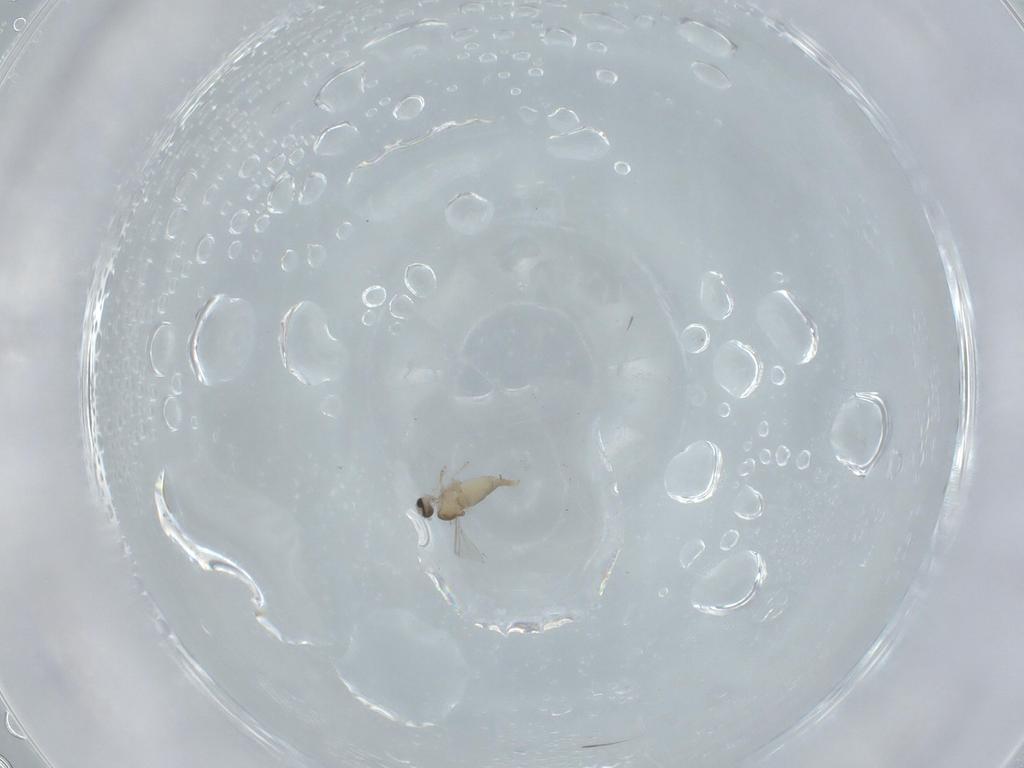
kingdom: Animalia
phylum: Arthropoda
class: Insecta
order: Diptera
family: Cecidomyiidae
